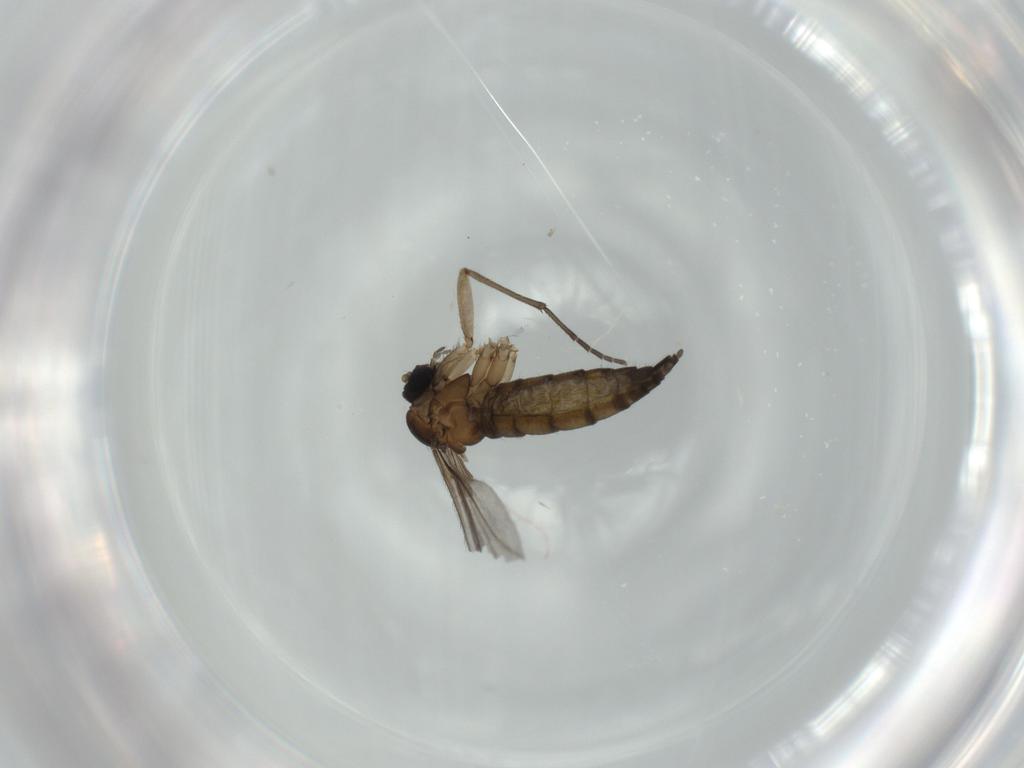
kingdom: Animalia
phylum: Arthropoda
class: Insecta
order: Diptera
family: Sciaridae
